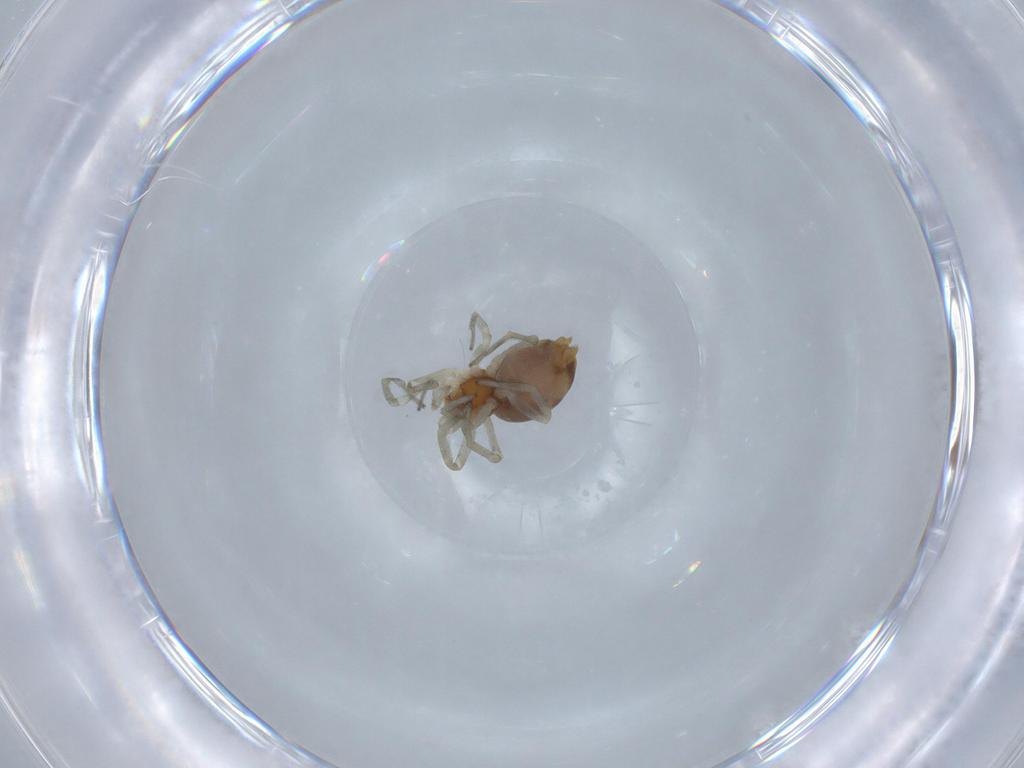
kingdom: Animalia
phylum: Arthropoda
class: Arachnida
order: Araneae
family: Dictynidae
